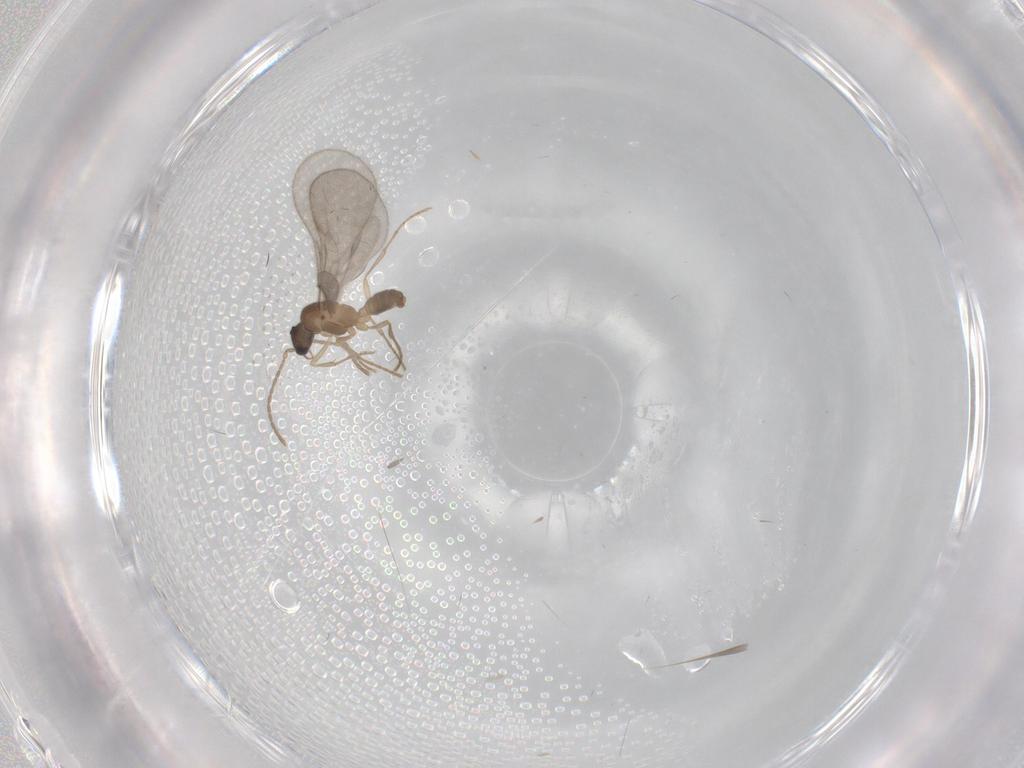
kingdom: Animalia
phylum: Arthropoda
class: Insecta
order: Hymenoptera
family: Formicidae
